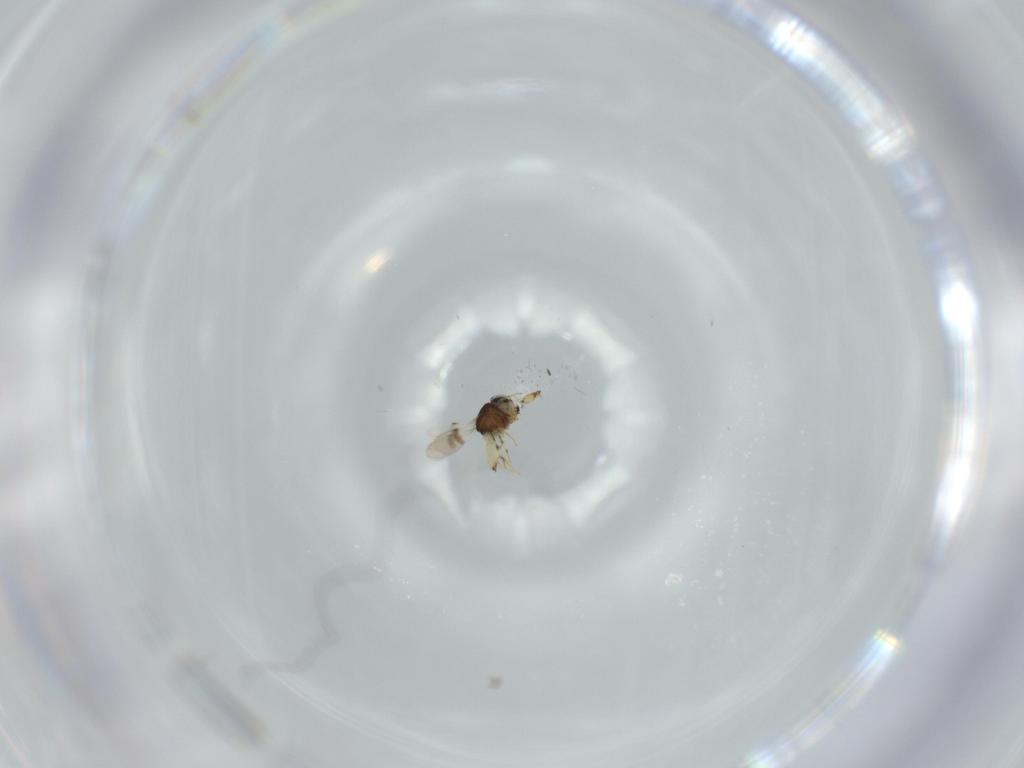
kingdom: Animalia
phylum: Arthropoda
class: Insecta
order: Hymenoptera
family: Scelionidae
